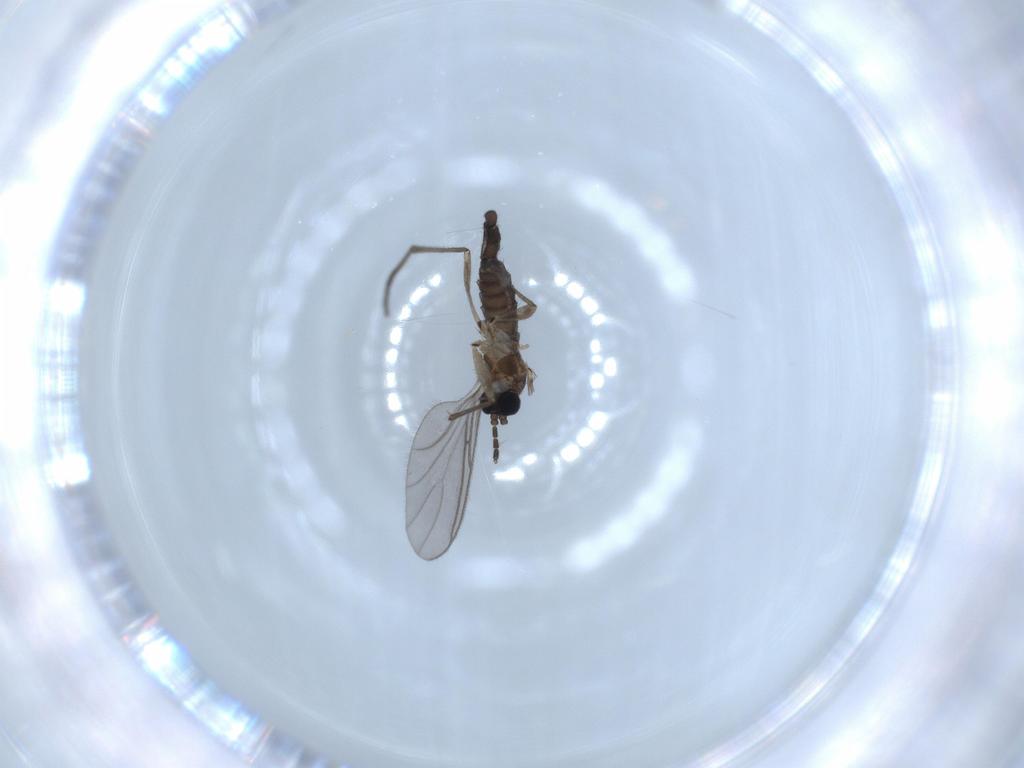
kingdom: Animalia
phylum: Arthropoda
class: Insecta
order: Diptera
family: Sciaridae
